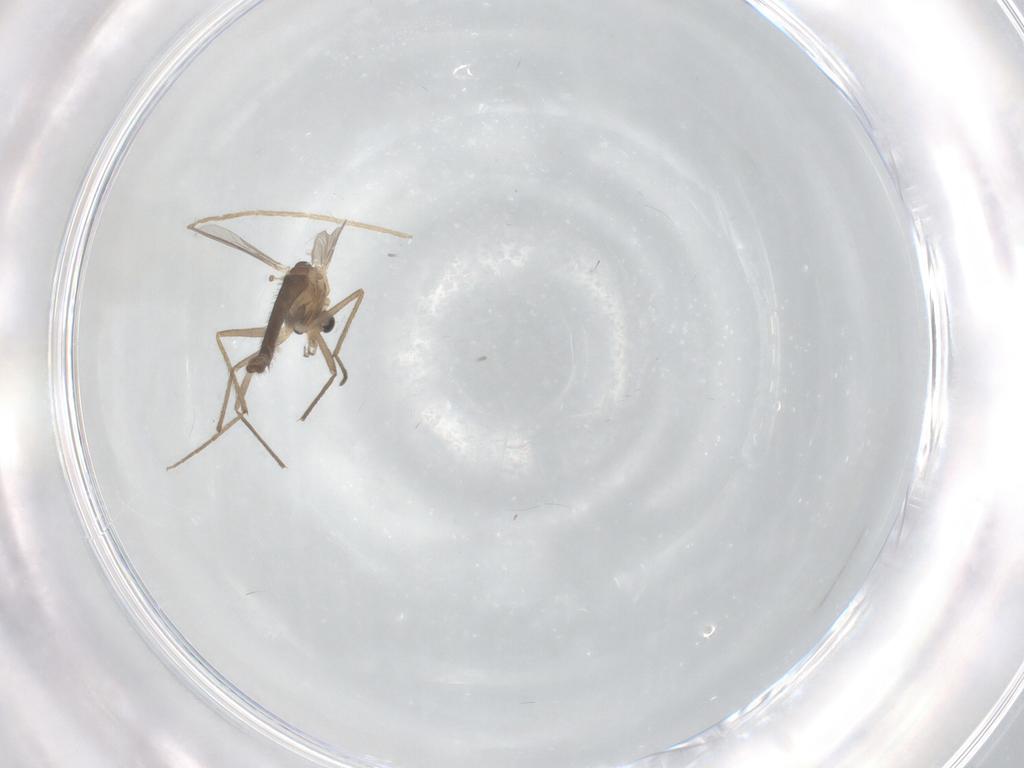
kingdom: Animalia
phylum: Arthropoda
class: Insecta
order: Diptera
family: Chironomidae
